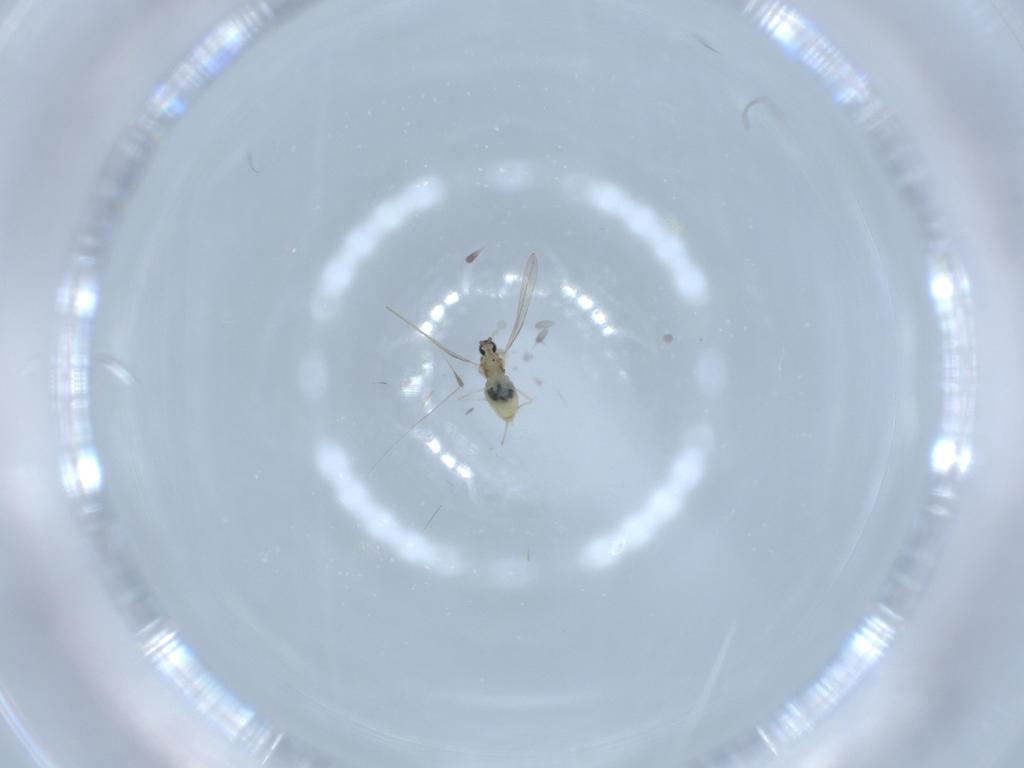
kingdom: Animalia
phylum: Arthropoda
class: Insecta
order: Diptera
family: Cecidomyiidae
